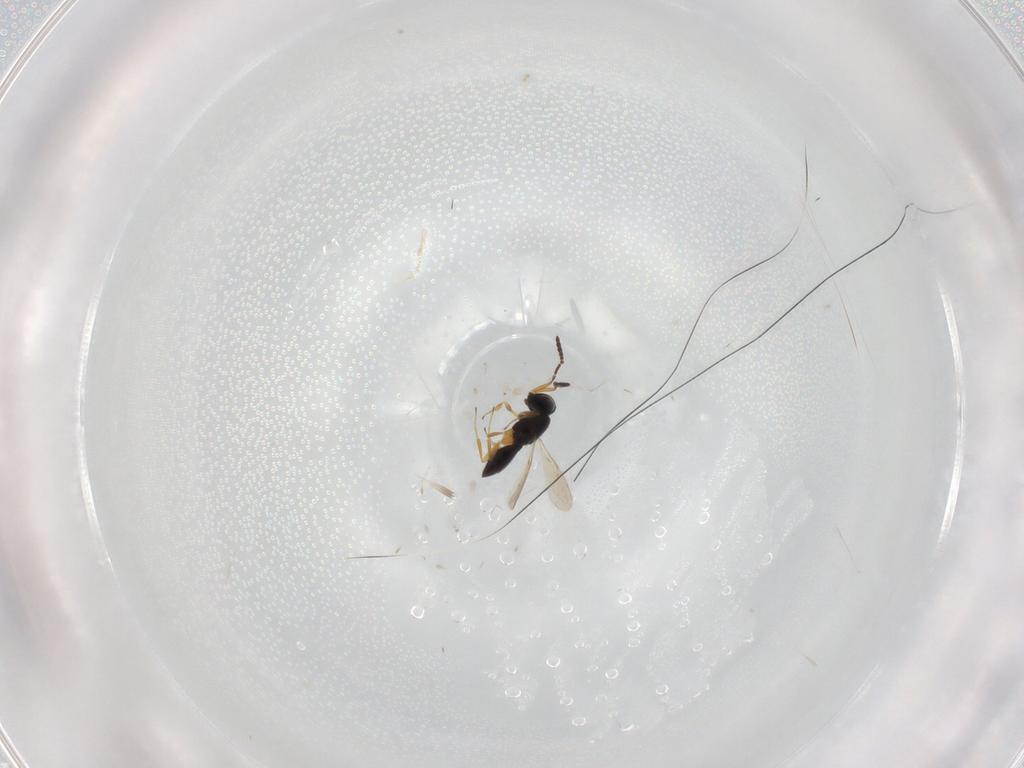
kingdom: Animalia
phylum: Arthropoda
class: Insecta
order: Hymenoptera
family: Scelionidae
